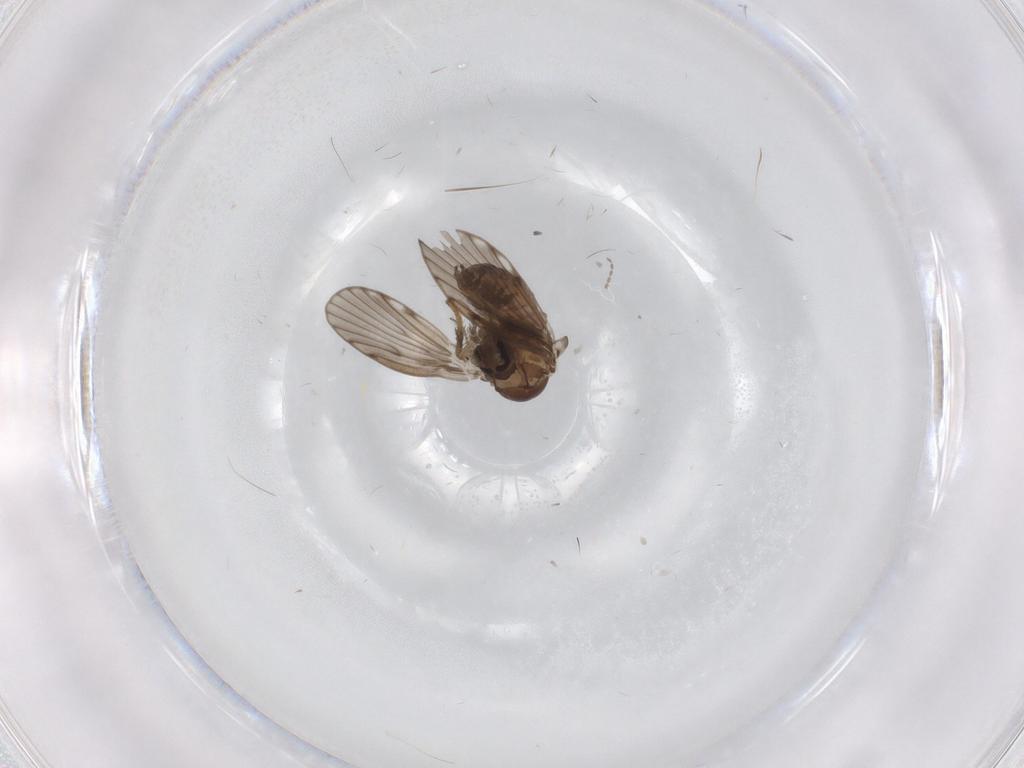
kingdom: Animalia
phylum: Arthropoda
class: Insecta
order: Diptera
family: Psychodidae
